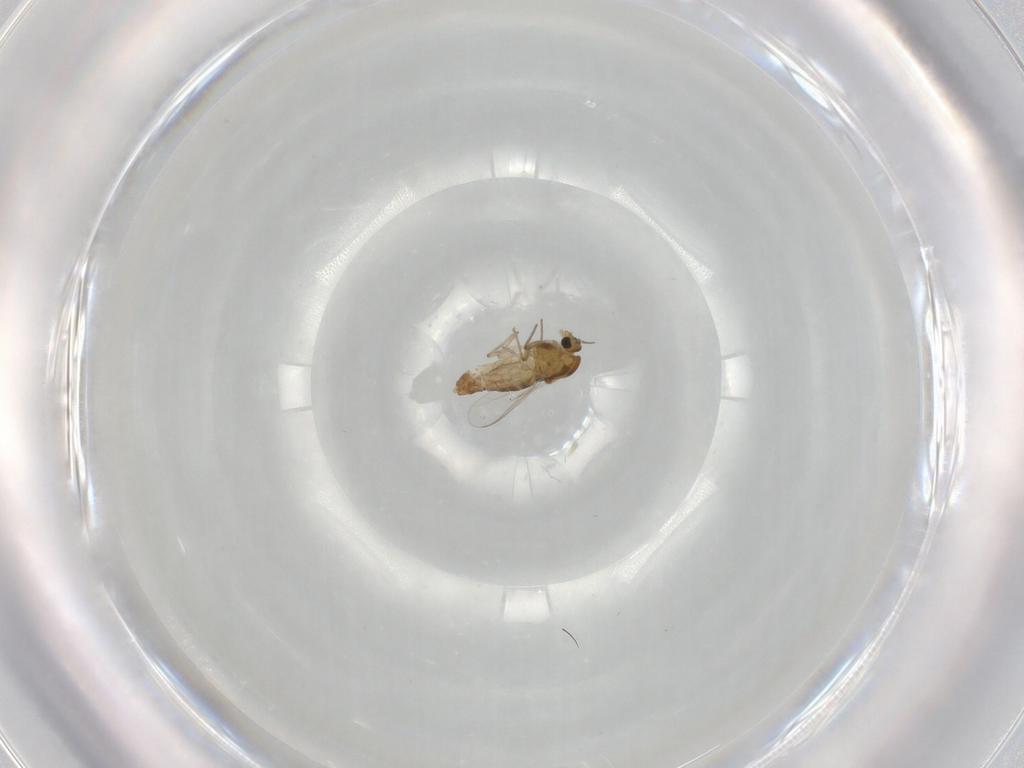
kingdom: Animalia
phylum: Arthropoda
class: Insecta
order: Diptera
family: Chironomidae
